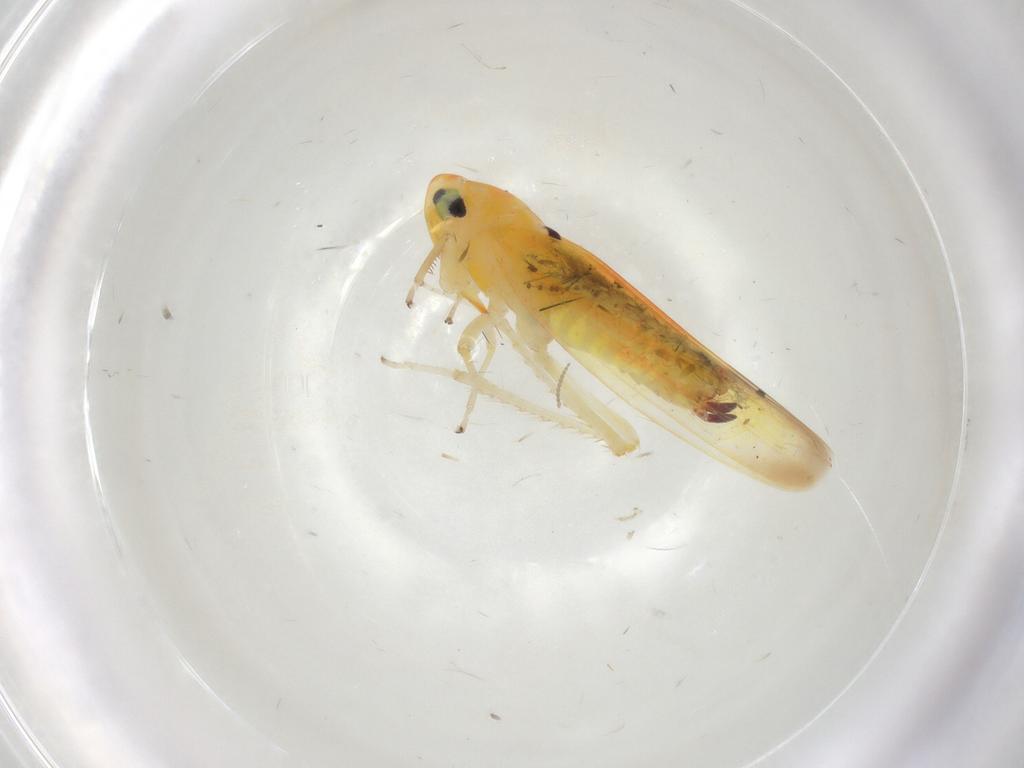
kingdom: Animalia
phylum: Arthropoda
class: Insecta
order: Hemiptera
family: Cicadellidae
